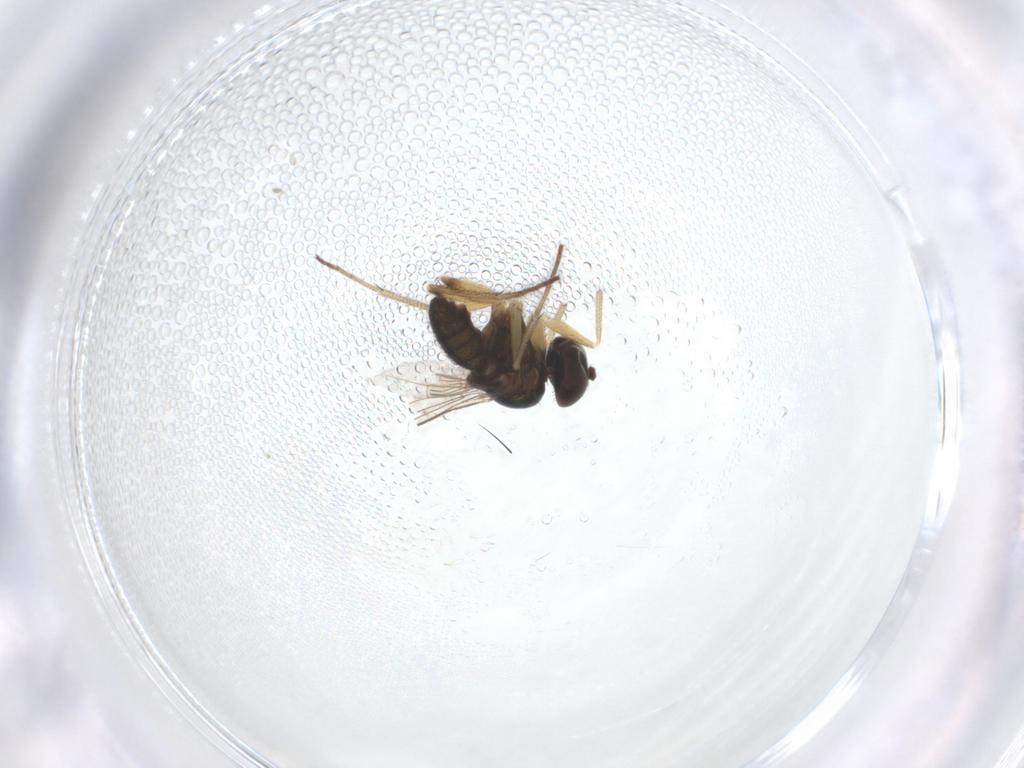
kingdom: Animalia
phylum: Arthropoda
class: Insecta
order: Diptera
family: Dolichopodidae
